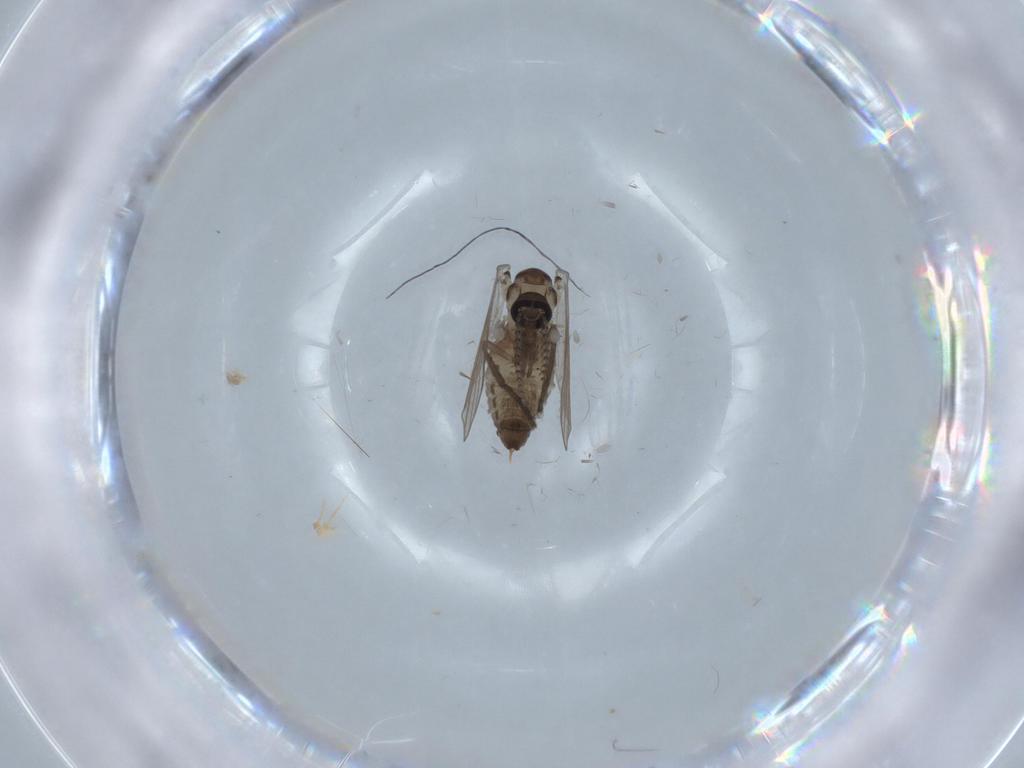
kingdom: Animalia
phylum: Arthropoda
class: Insecta
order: Diptera
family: Psychodidae
